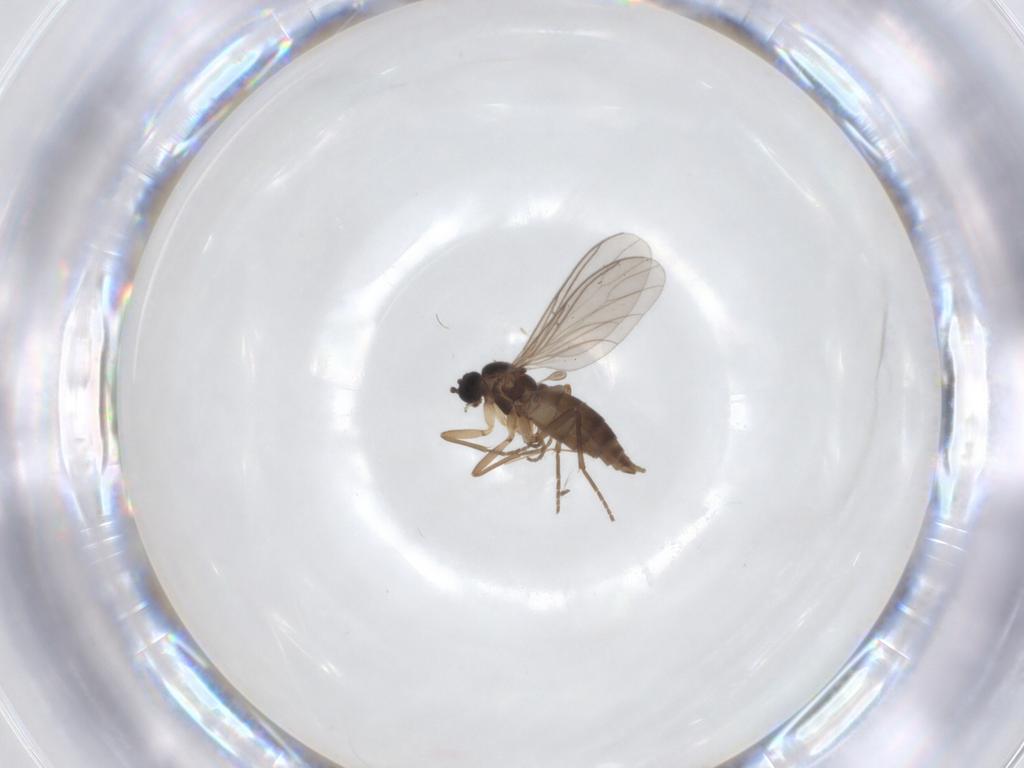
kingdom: Animalia
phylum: Arthropoda
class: Insecta
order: Diptera
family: Sciaridae
